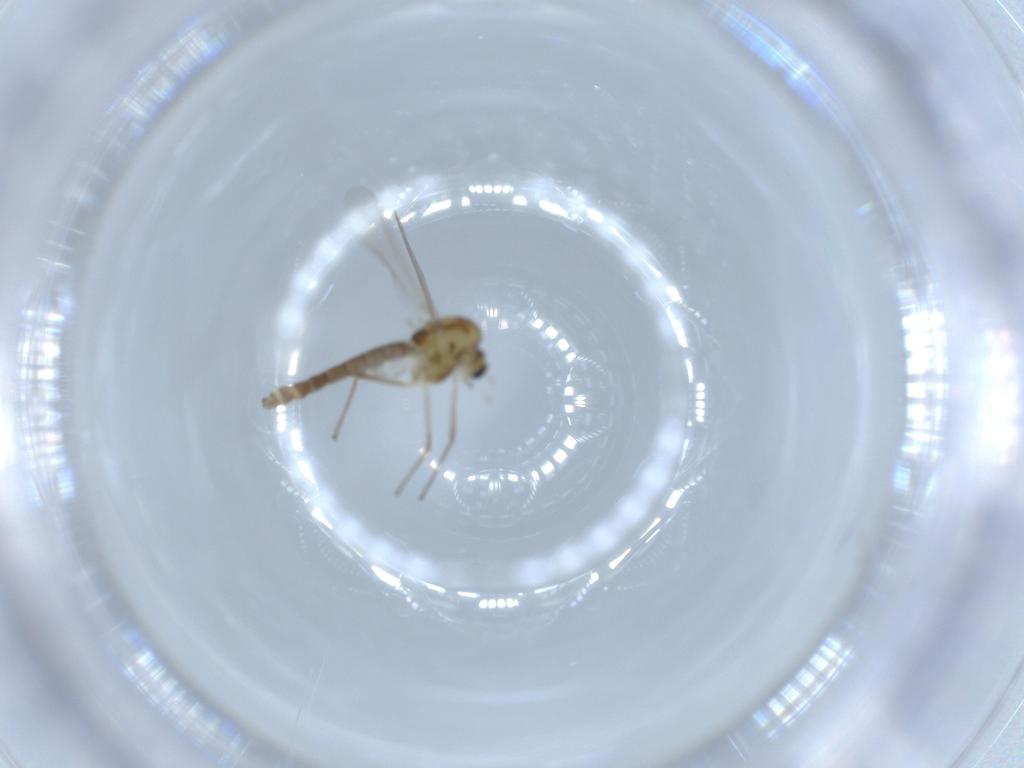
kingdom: Animalia
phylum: Arthropoda
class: Insecta
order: Diptera
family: Chironomidae
